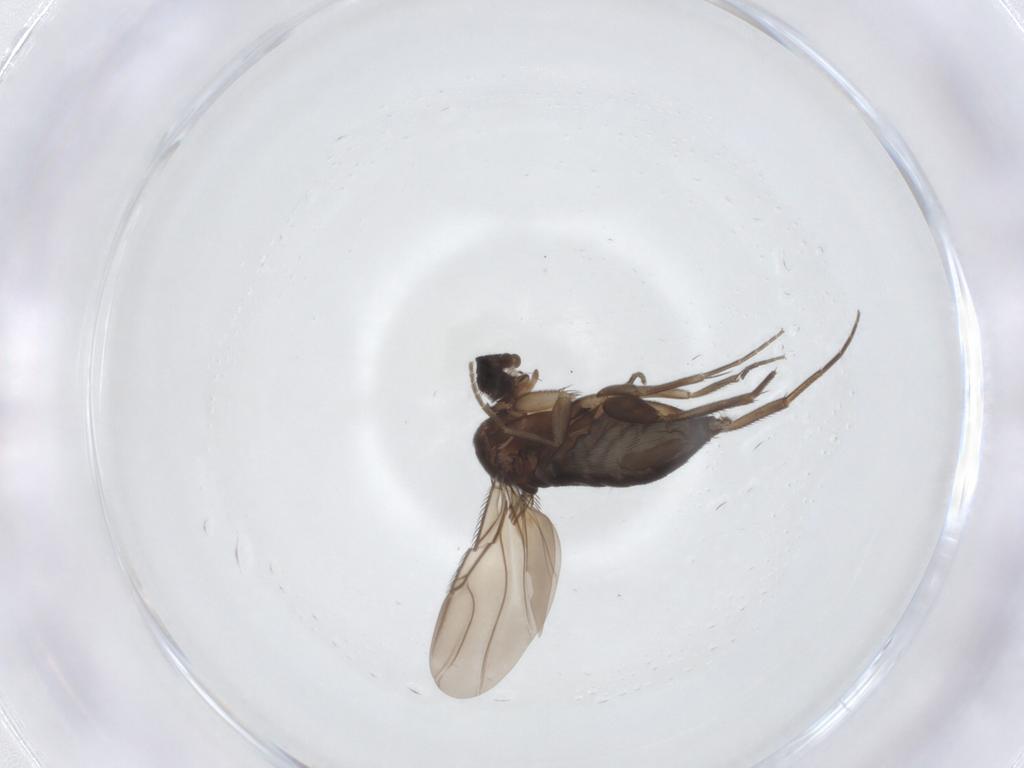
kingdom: Animalia
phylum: Arthropoda
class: Insecta
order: Diptera
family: Phoridae
